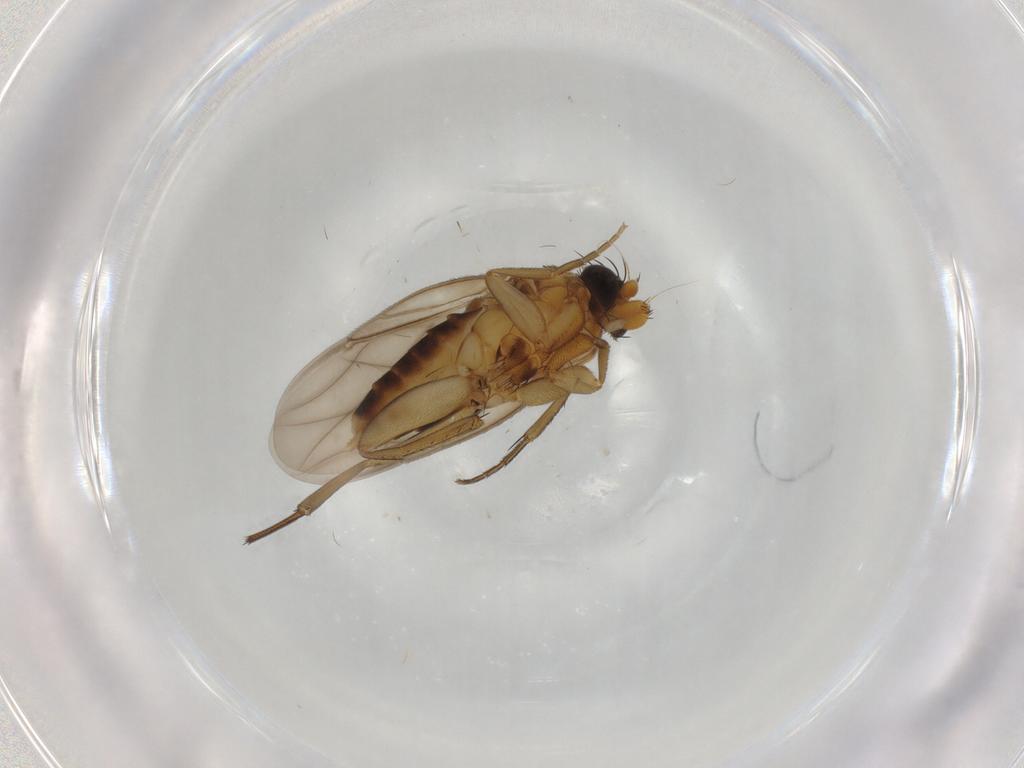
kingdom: Animalia
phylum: Arthropoda
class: Insecta
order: Diptera
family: Cecidomyiidae
